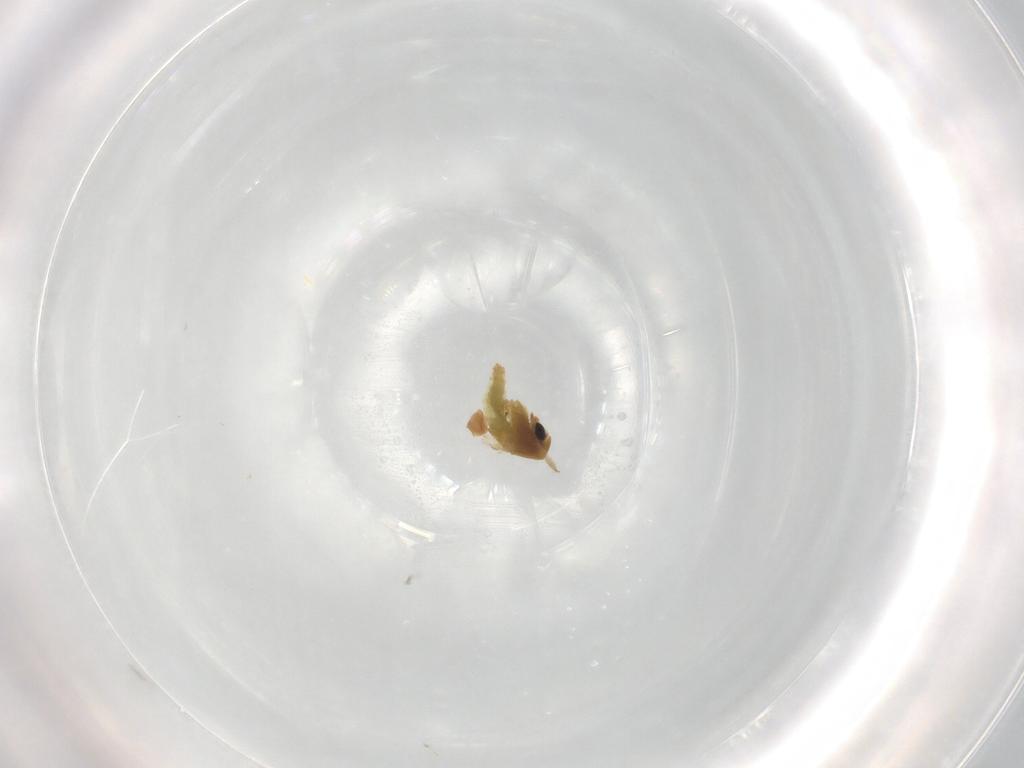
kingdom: Animalia
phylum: Arthropoda
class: Insecta
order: Diptera
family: Chironomidae
